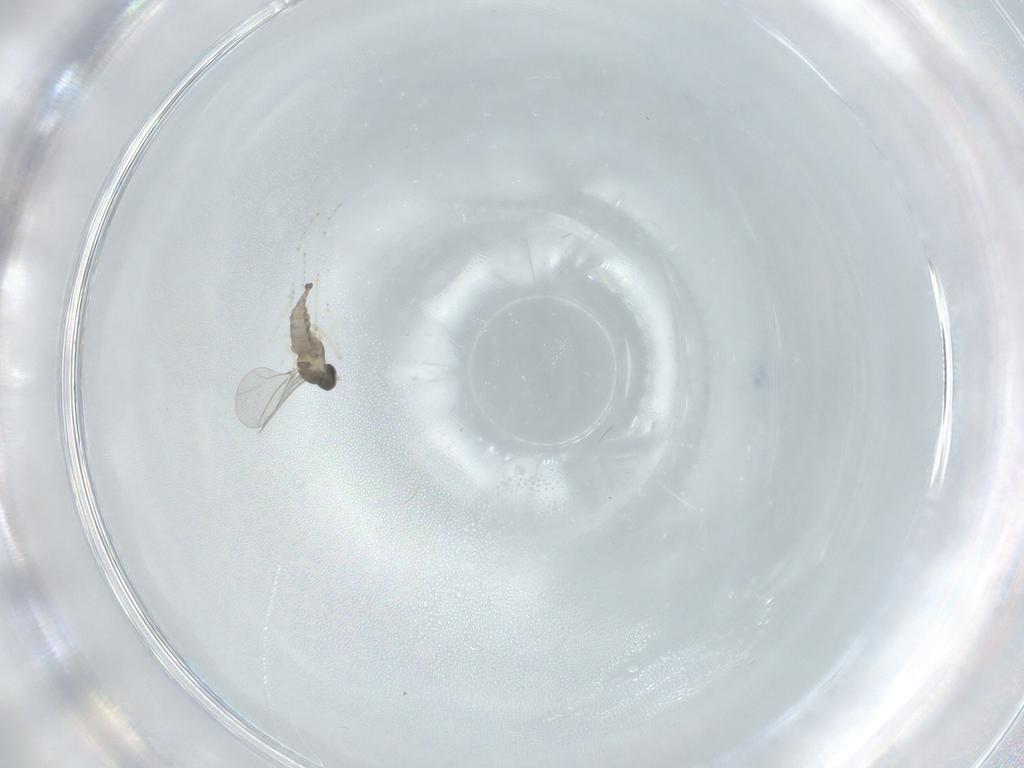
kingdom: Animalia
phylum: Arthropoda
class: Insecta
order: Diptera
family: Cecidomyiidae
